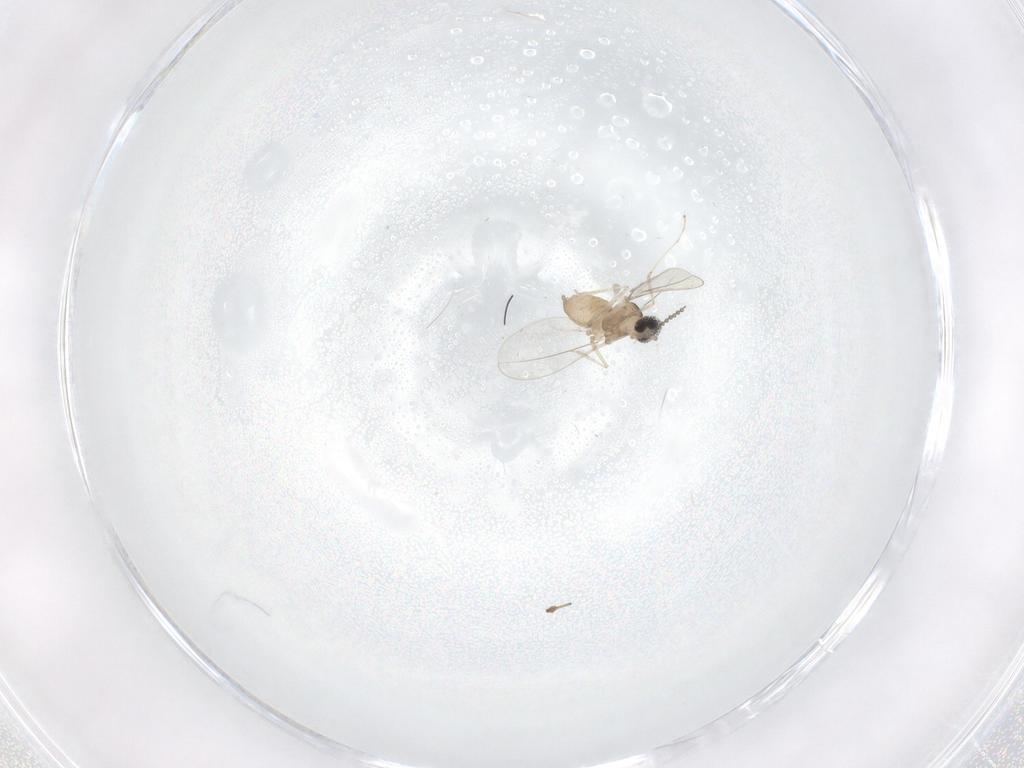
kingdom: Animalia
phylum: Arthropoda
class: Insecta
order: Diptera
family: Cecidomyiidae
